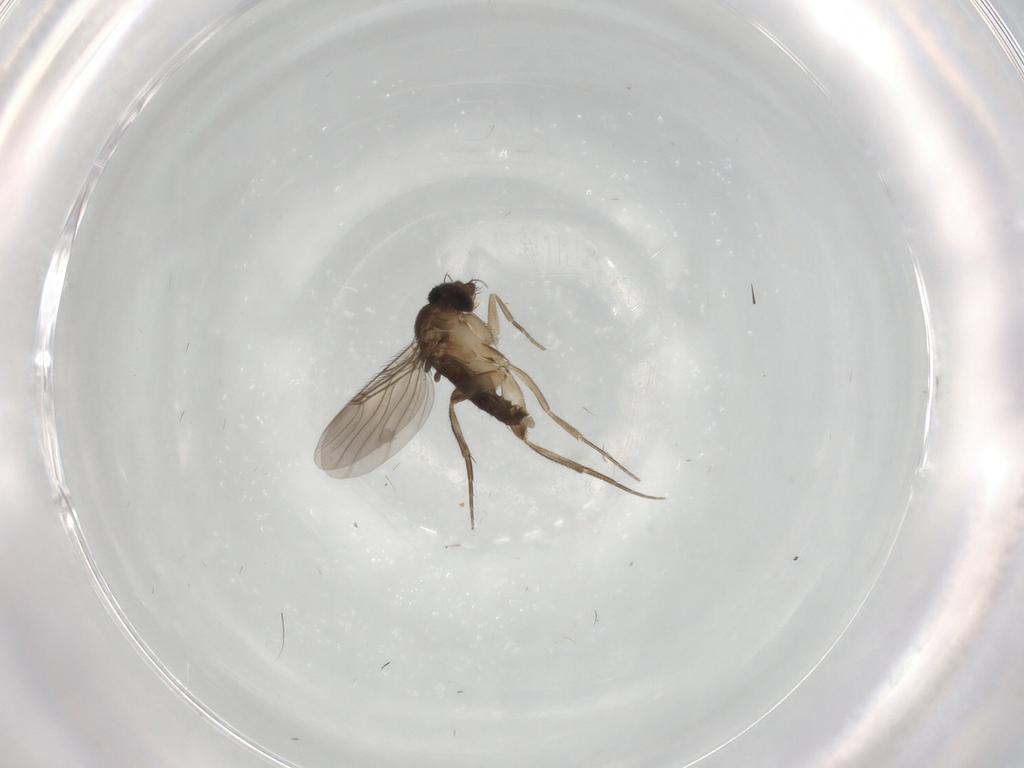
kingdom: Animalia
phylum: Arthropoda
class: Insecta
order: Diptera
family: Phoridae
